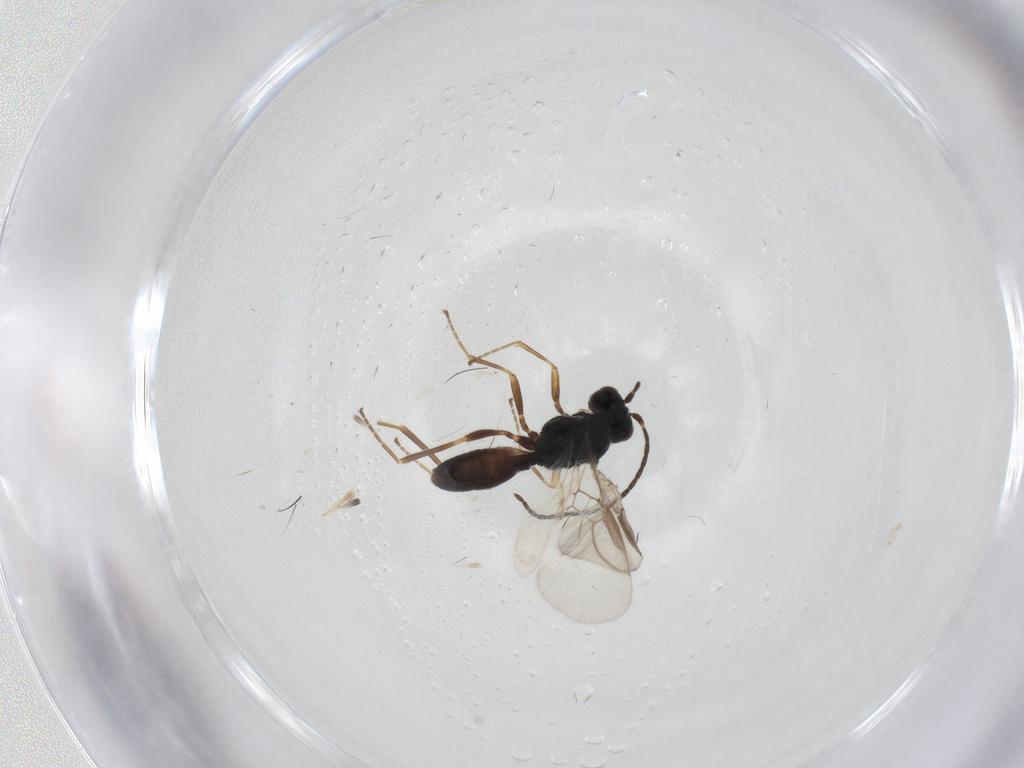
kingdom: Animalia
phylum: Arthropoda
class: Insecta
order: Hymenoptera
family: Braconidae
